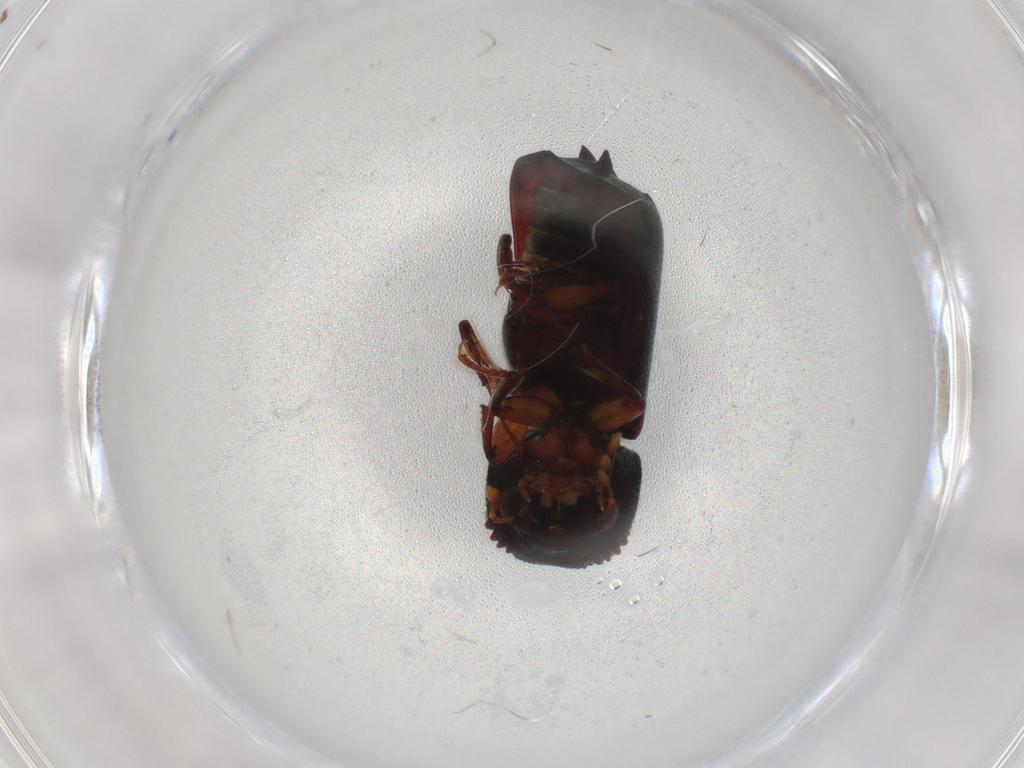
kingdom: Animalia
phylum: Arthropoda
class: Insecta
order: Coleoptera
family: Bostrichidae
